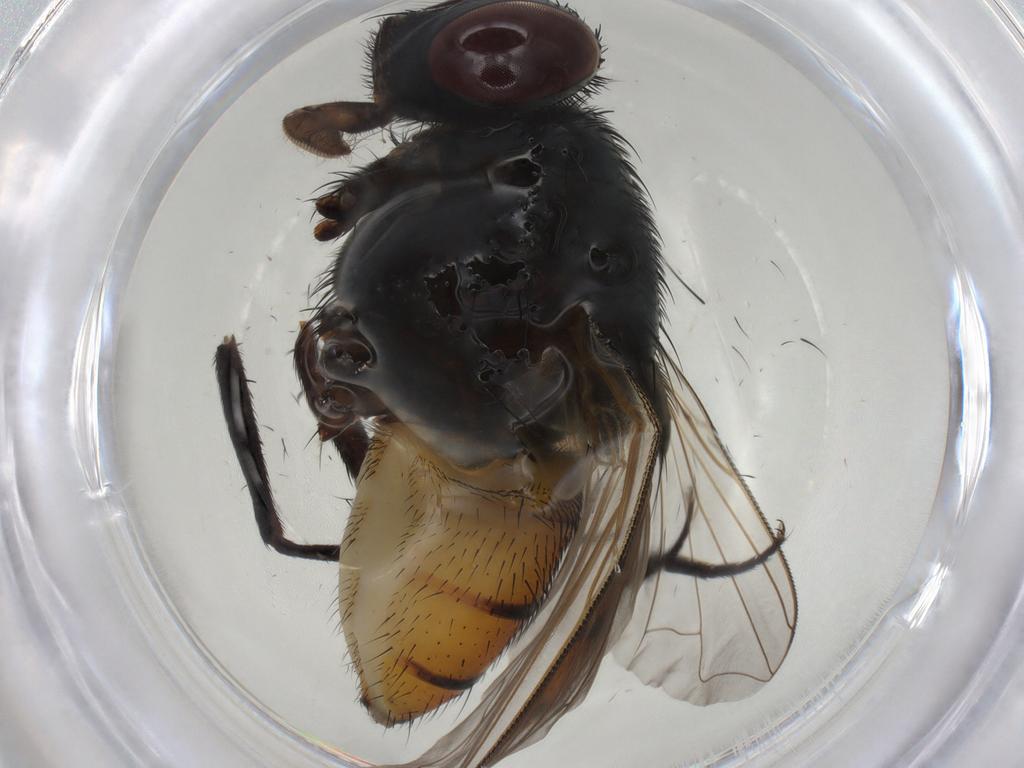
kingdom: Animalia
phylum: Arthropoda
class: Insecta
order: Diptera
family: Muscidae
